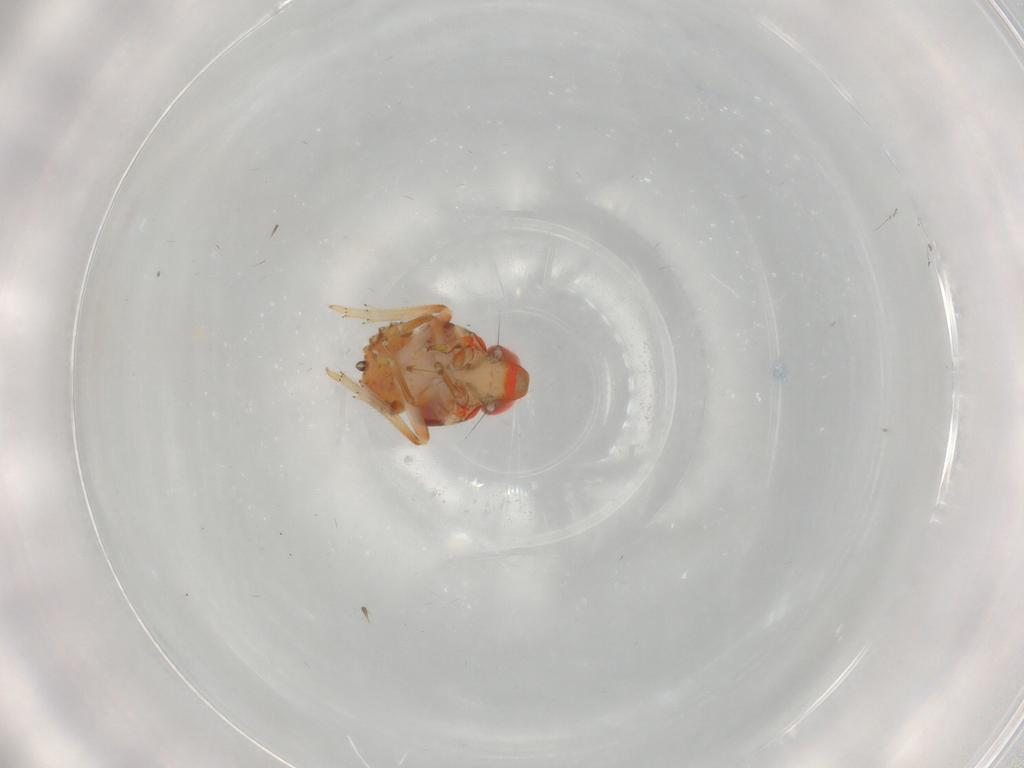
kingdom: Animalia
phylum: Arthropoda
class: Insecta
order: Hemiptera
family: Issidae
